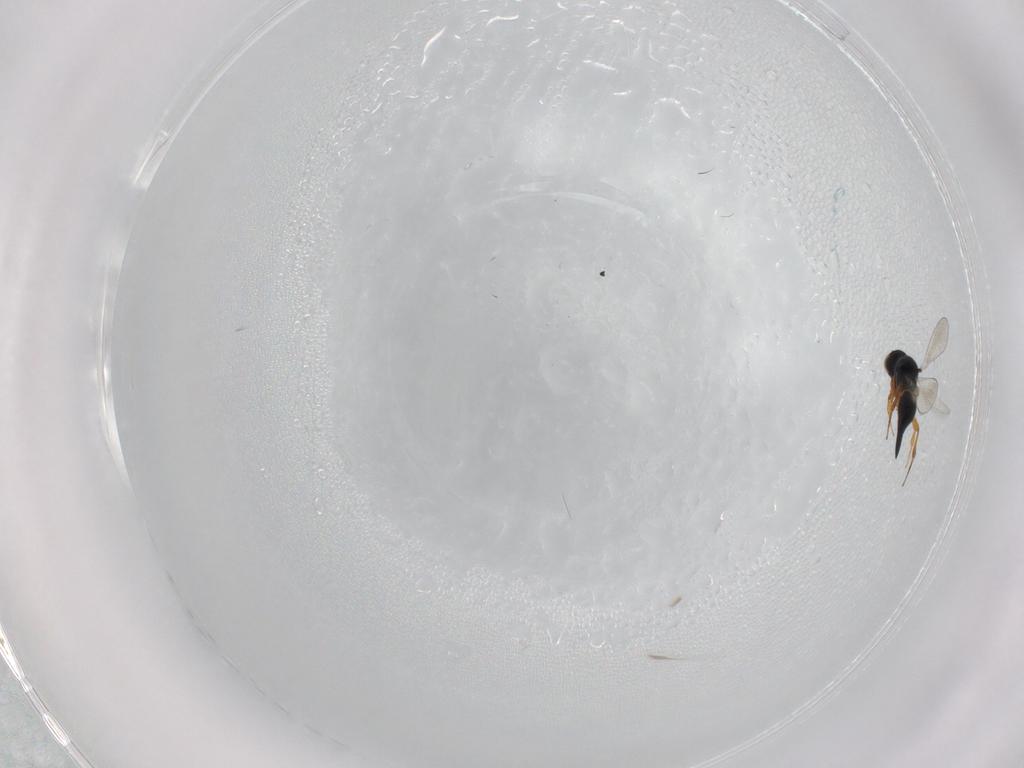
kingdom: Animalia
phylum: Arthropoda
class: Insecta
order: Hymenoptera
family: Platygastridae
